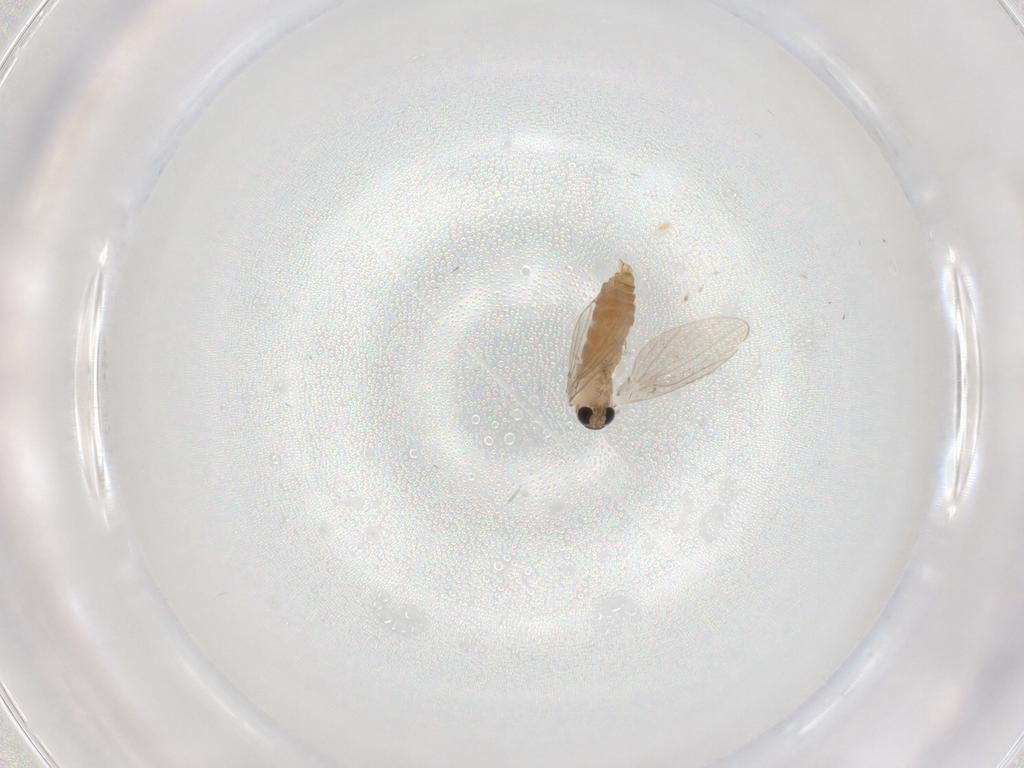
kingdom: Animalia
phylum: Arthropoda
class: Insecta
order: Diptera
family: Psychodidae
